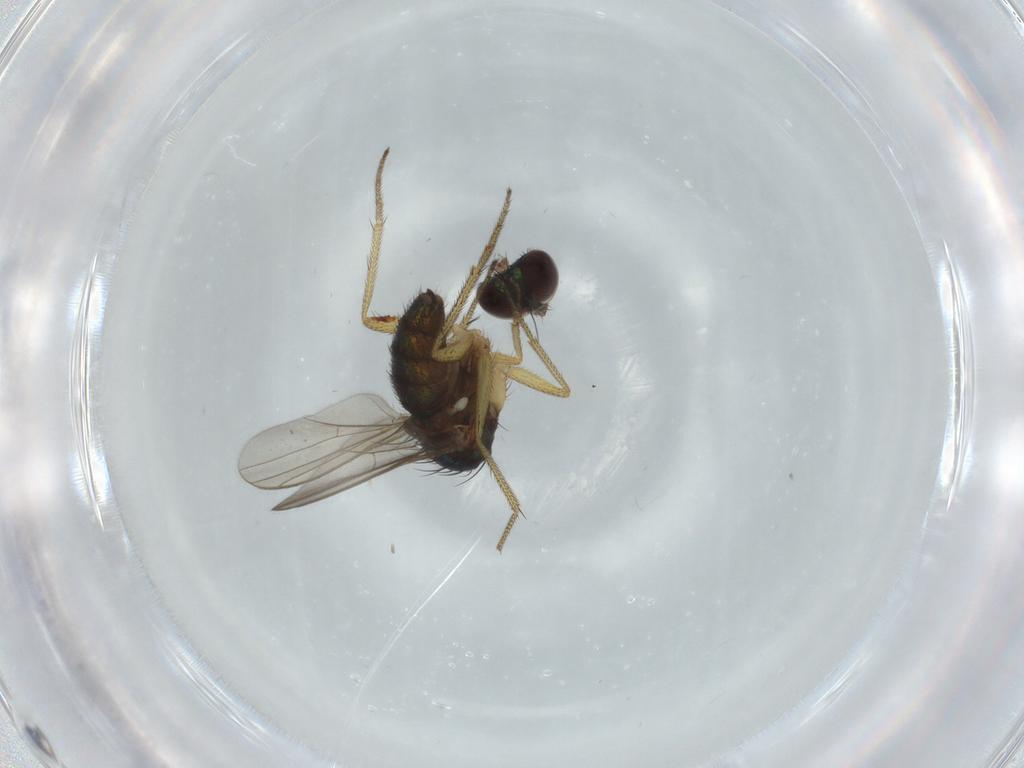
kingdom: Animalia
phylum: Arthropoda
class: Insecta
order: Diptera
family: Dolichopodidae
